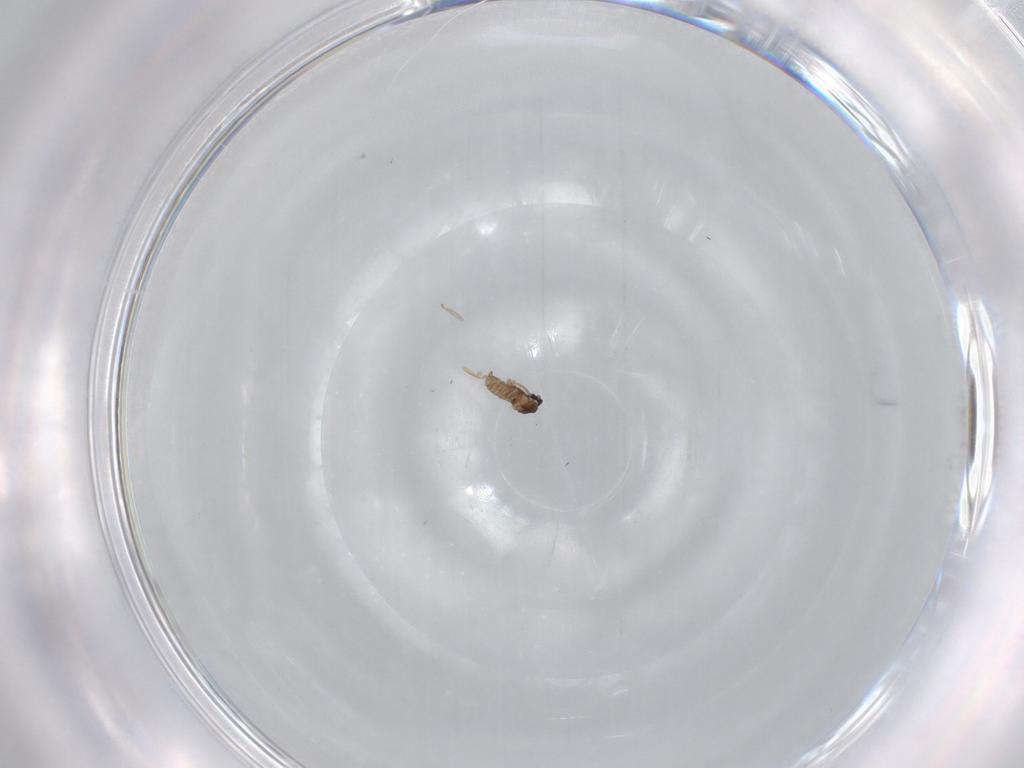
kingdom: Animalia
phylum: Arthropoda
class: Insecta
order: Diptera
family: Cecidomyiidae
